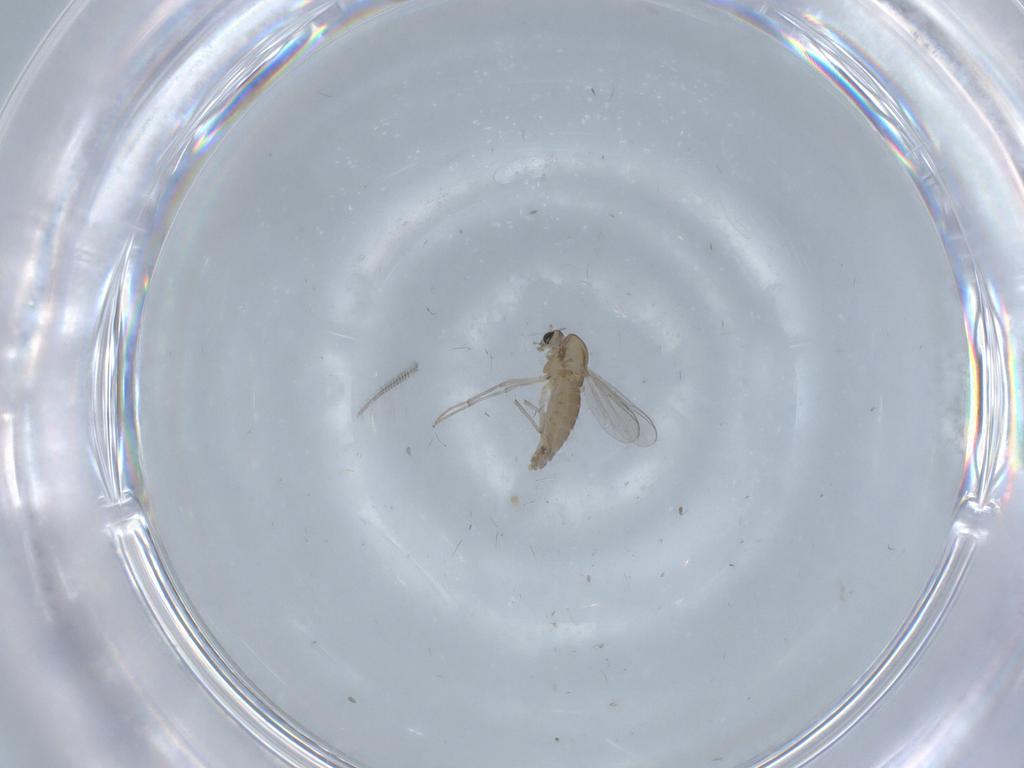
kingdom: Animalia
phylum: Arthropoda
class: Insecta
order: Diptera
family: Chironomidae
